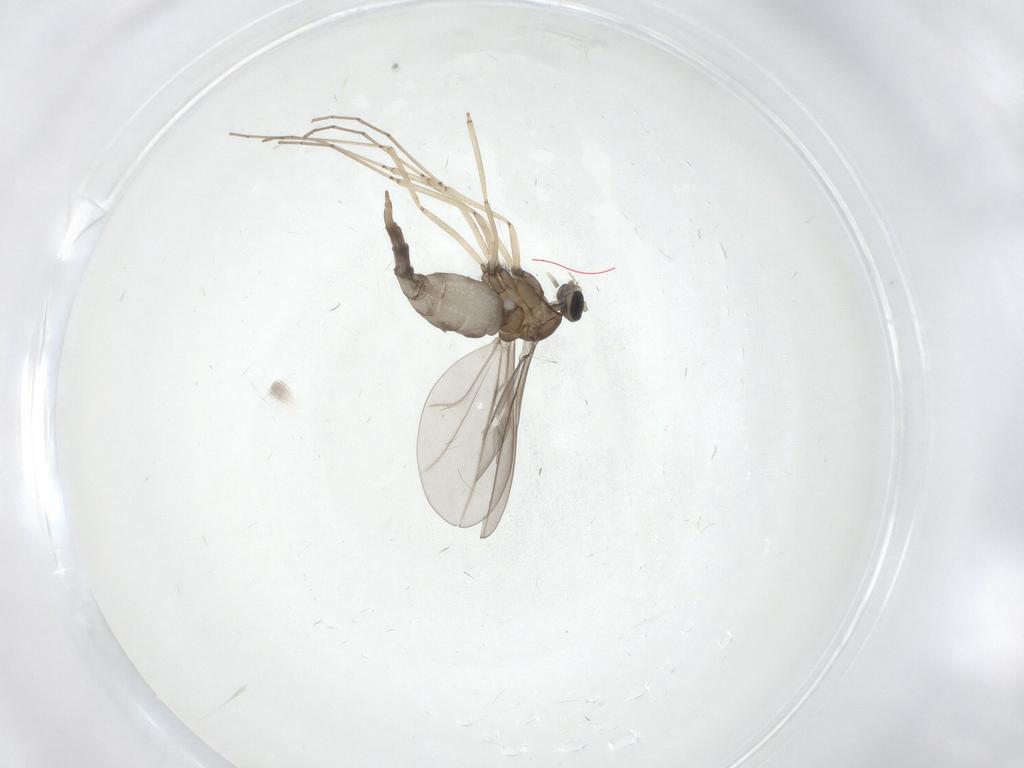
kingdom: Animalia
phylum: Arthropoda
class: Insecta
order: Diptera
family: Cecidomyiidae
